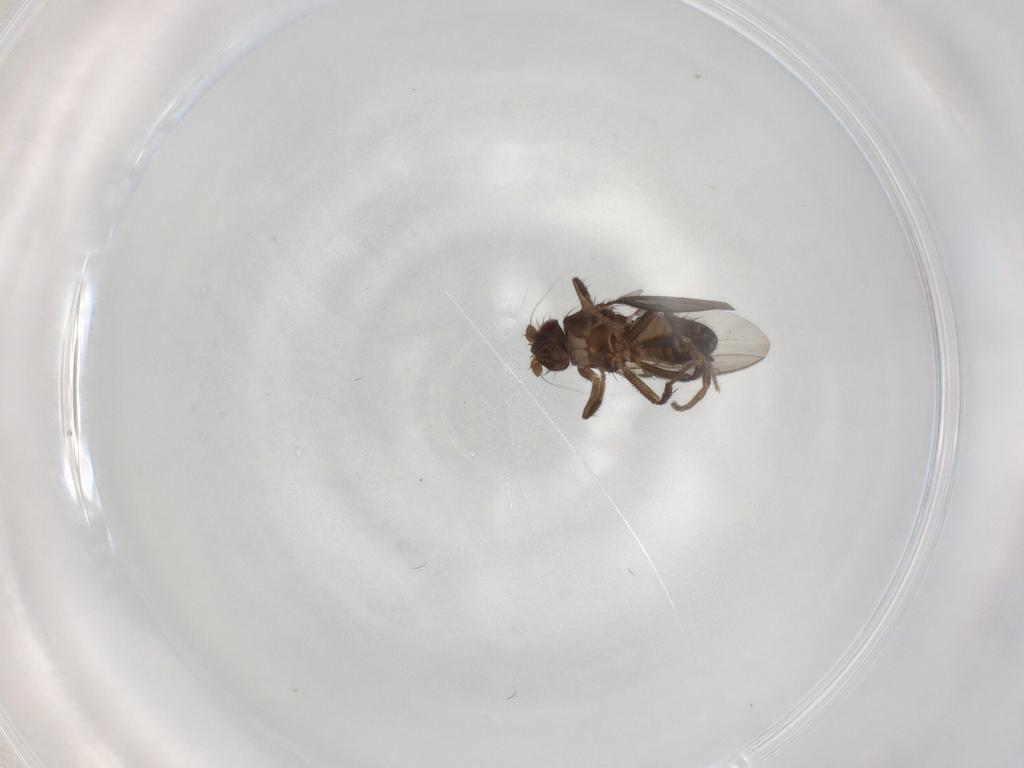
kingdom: Animalia
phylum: Arthropoda
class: Insecta
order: Diptera
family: Sphaeroceridae
